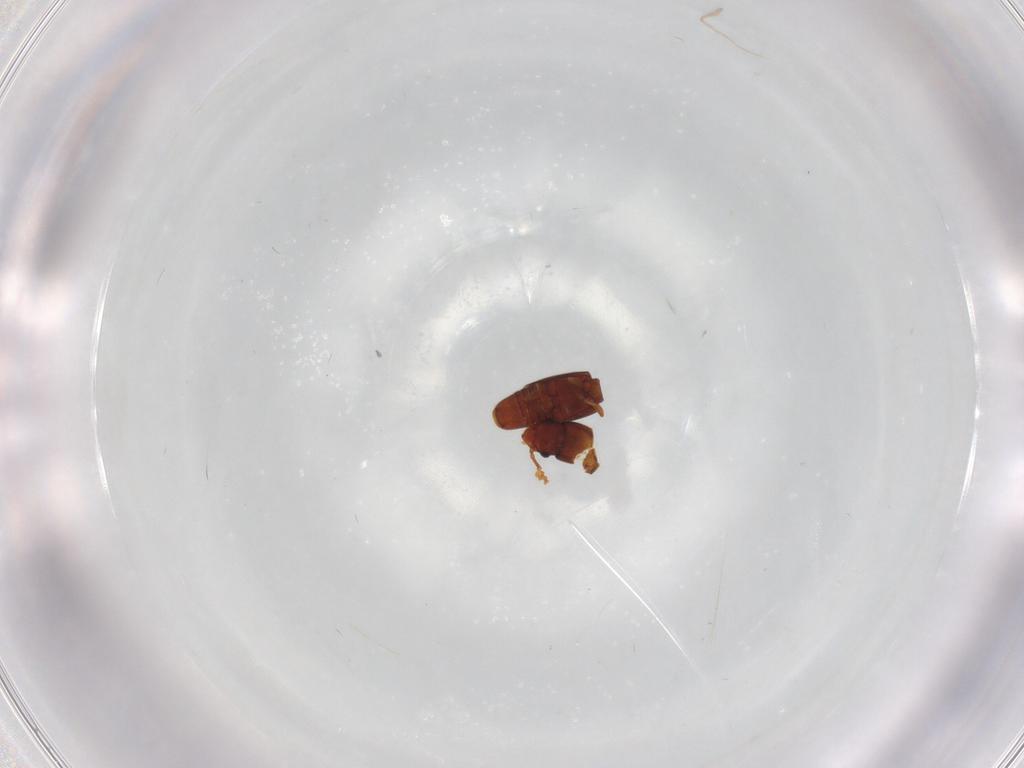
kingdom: Animalia
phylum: Arthropoda
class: Insecta
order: Coleoptera
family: Smicripidae
